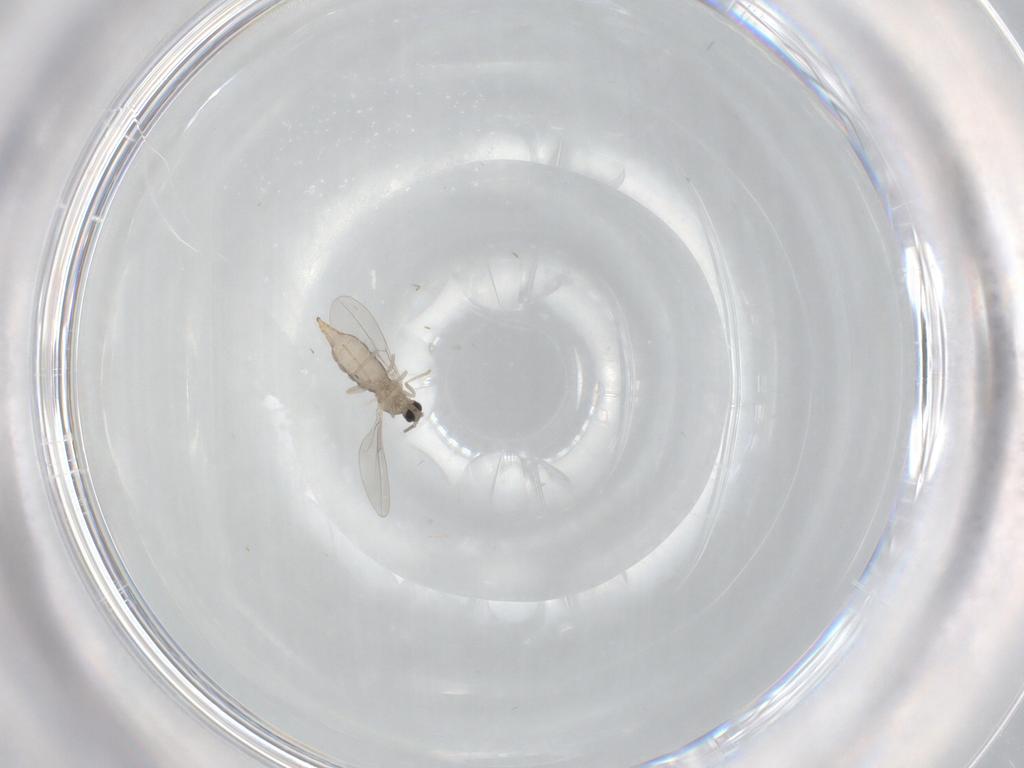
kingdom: Animalia
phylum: Arthropoda
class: Insecta
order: Diptera
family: Cecidomyiidae
